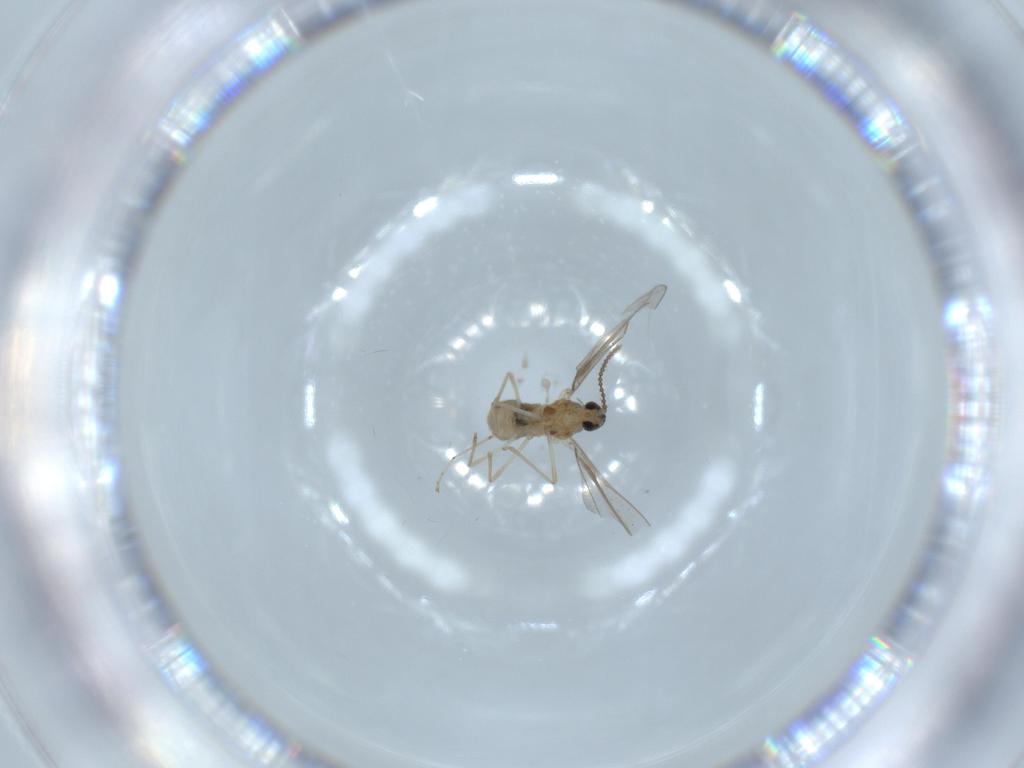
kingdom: Animalia
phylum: Arthropoda
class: Insecta
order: Diptera
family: Cecidomyiidae
